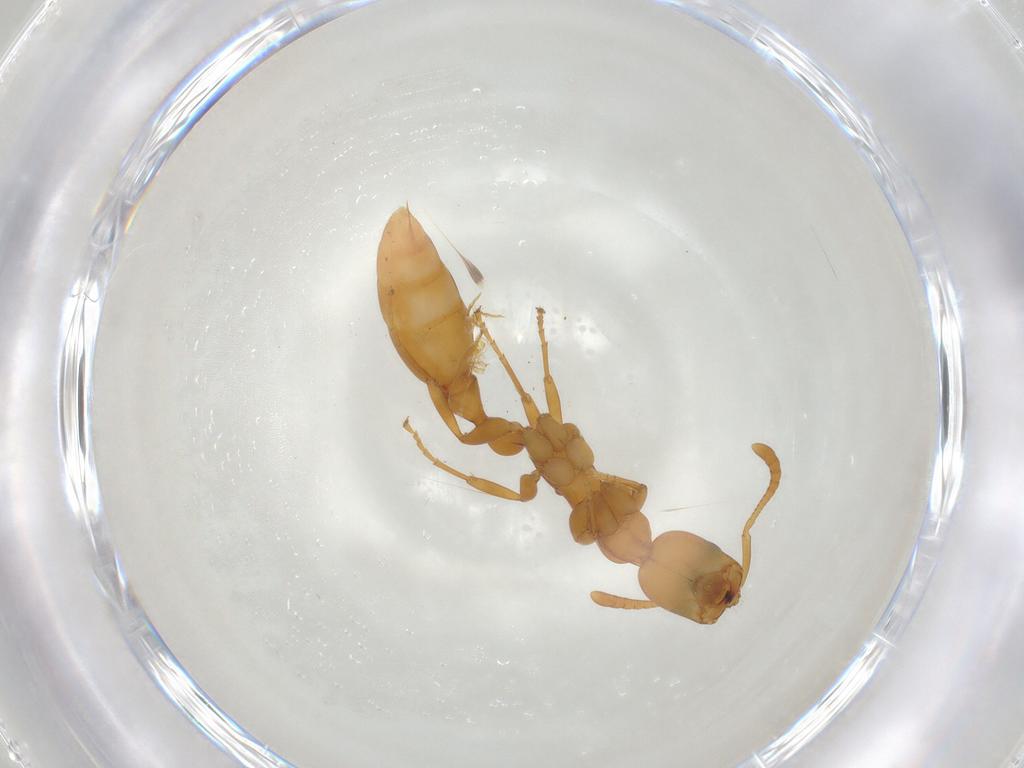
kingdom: Animalia
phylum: Arthropoda
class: Insecta
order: Hymenoptera
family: Formicidae
